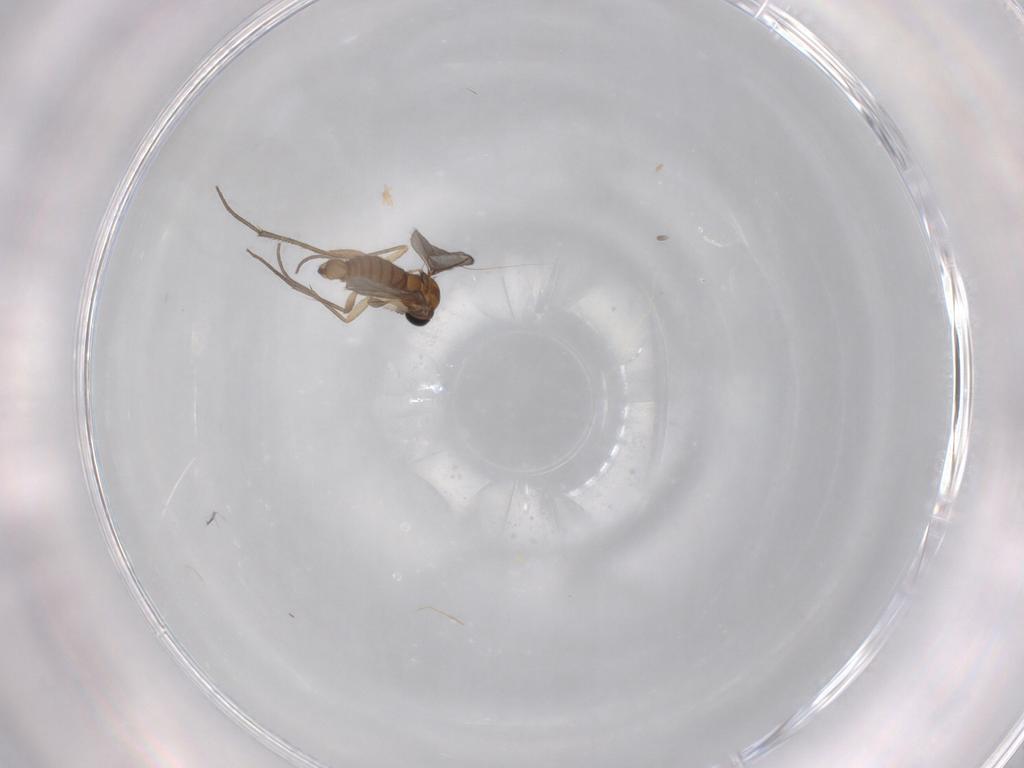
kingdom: Animalia
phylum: Arthropoda
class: Insecta
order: Diptera
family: Sciaridae
